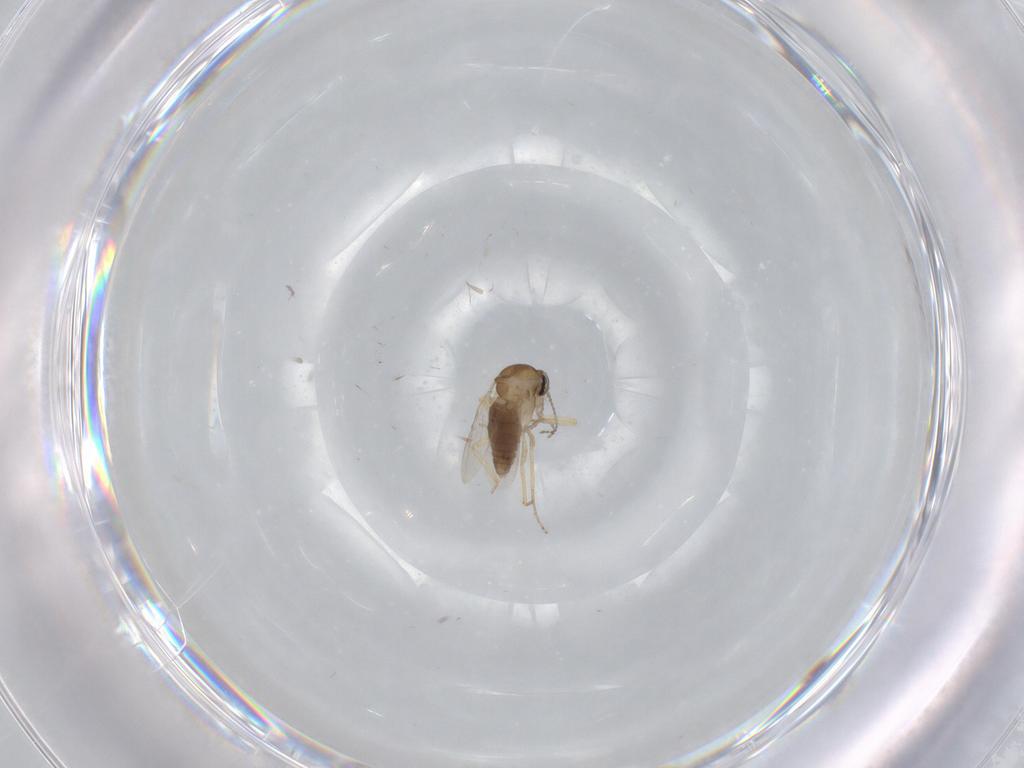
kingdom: Animalia
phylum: Arthropoda
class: Insecta
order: Diptera
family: Ceratopogonidae
